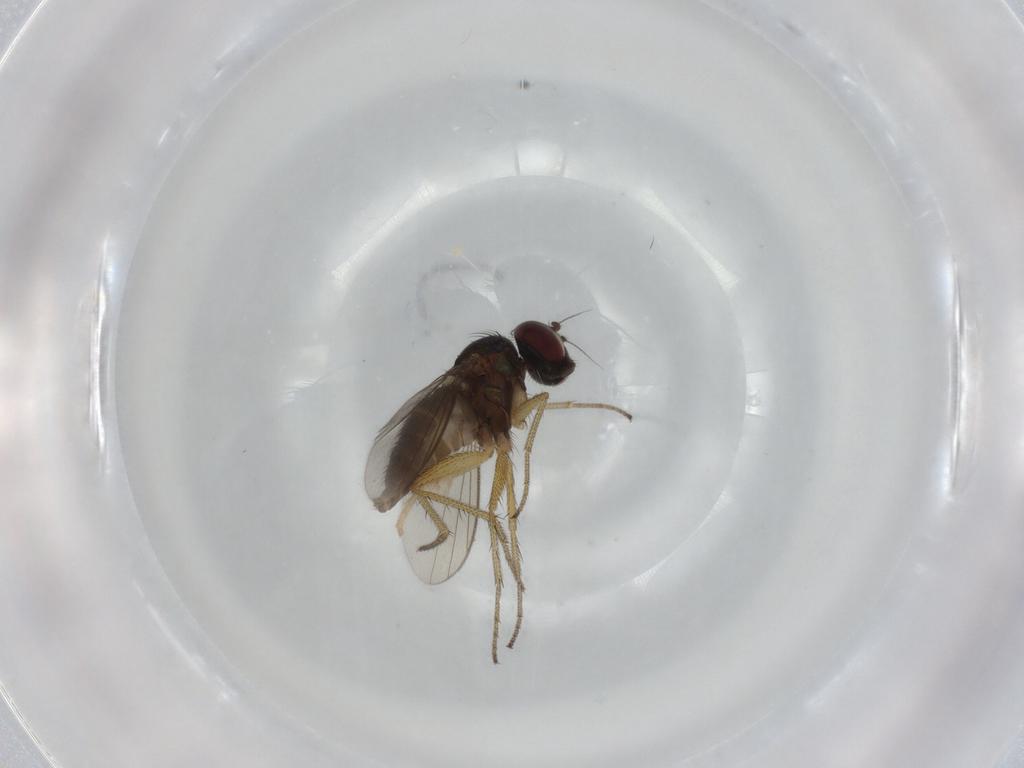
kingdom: Animalia
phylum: Arthropoda
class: Insecta
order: Diptera
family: Dolichopodidae
